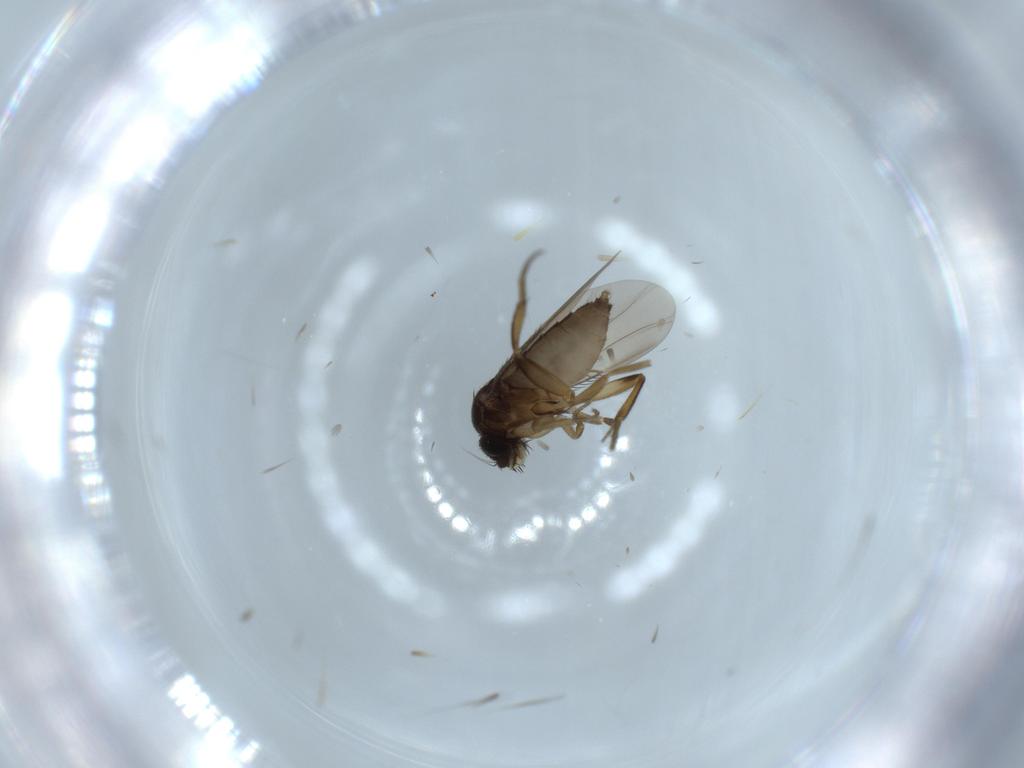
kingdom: Animalia
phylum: Arthropoda
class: Insecta
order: Diptera
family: Phoridae
